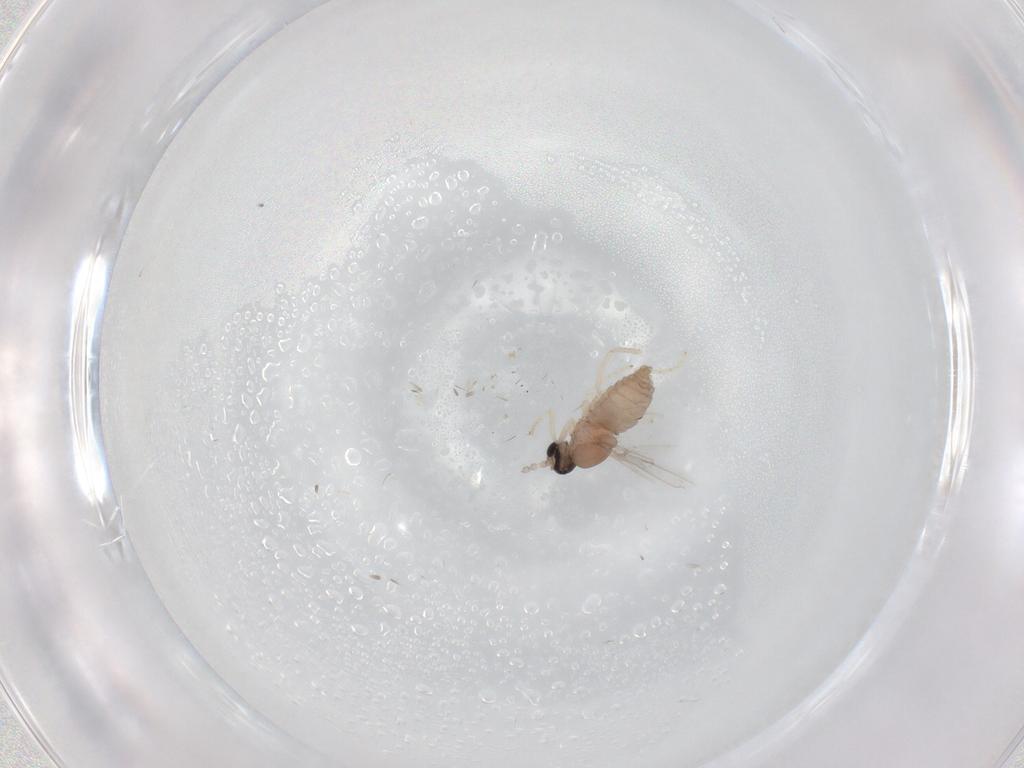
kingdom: Animalia
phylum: Arthropoda
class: Insecta
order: Diptera
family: Cecidomyiidae
